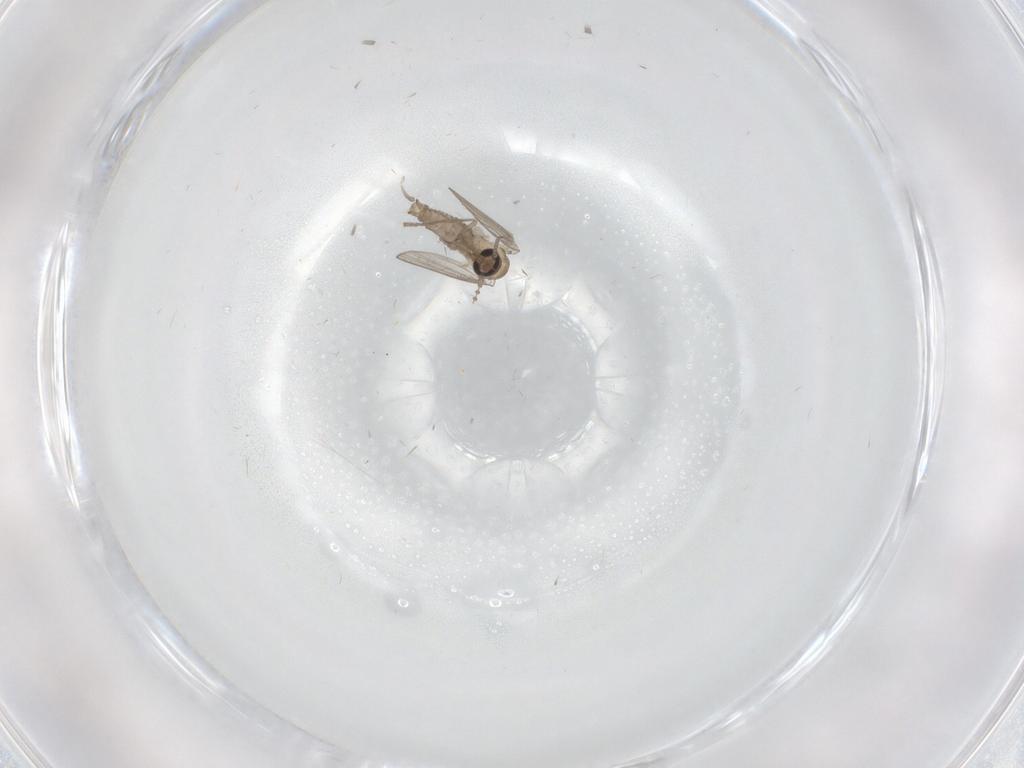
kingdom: Animalia
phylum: Arthropoda
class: Insecta
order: Diptera
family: Psychodidae
